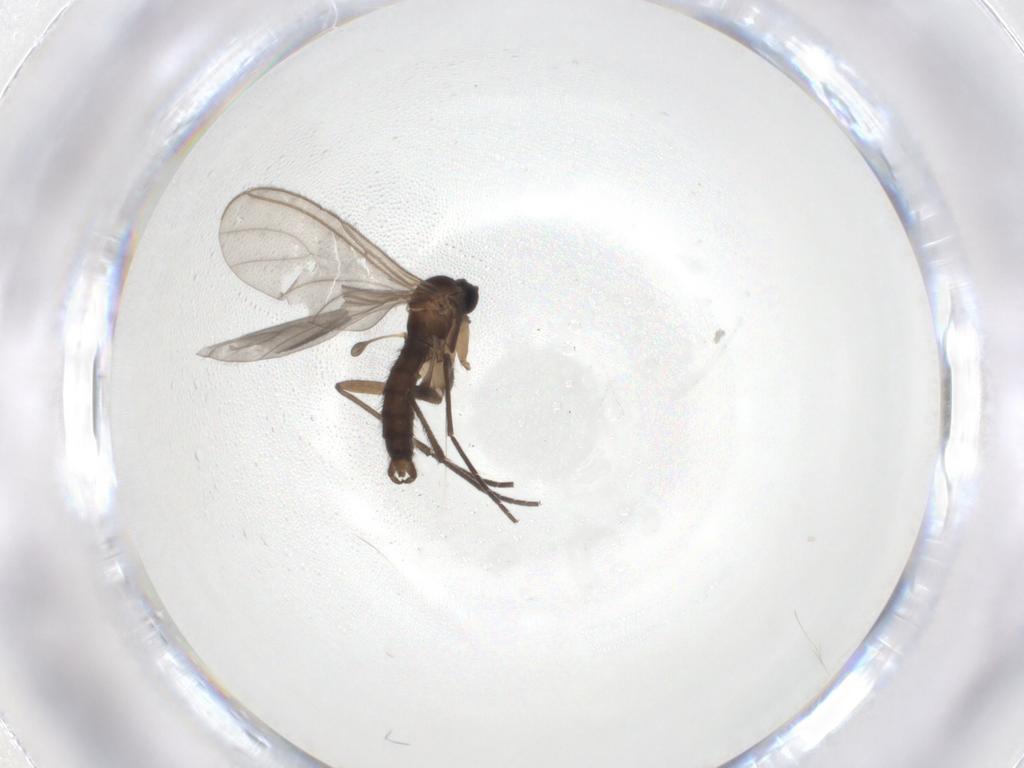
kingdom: Animalia
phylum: Arthropoda
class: Insecta
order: Diptera
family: Sciaridae
